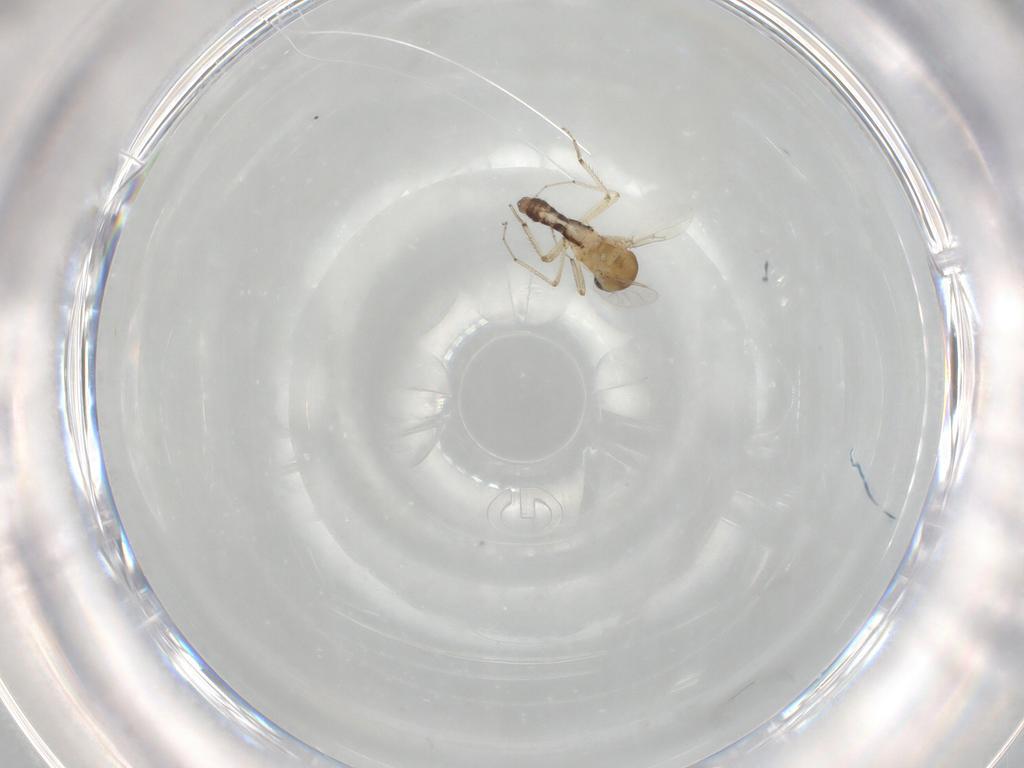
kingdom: Animalia
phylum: Arthropoda
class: Insecta
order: Diptera
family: Ceratopogonidae
